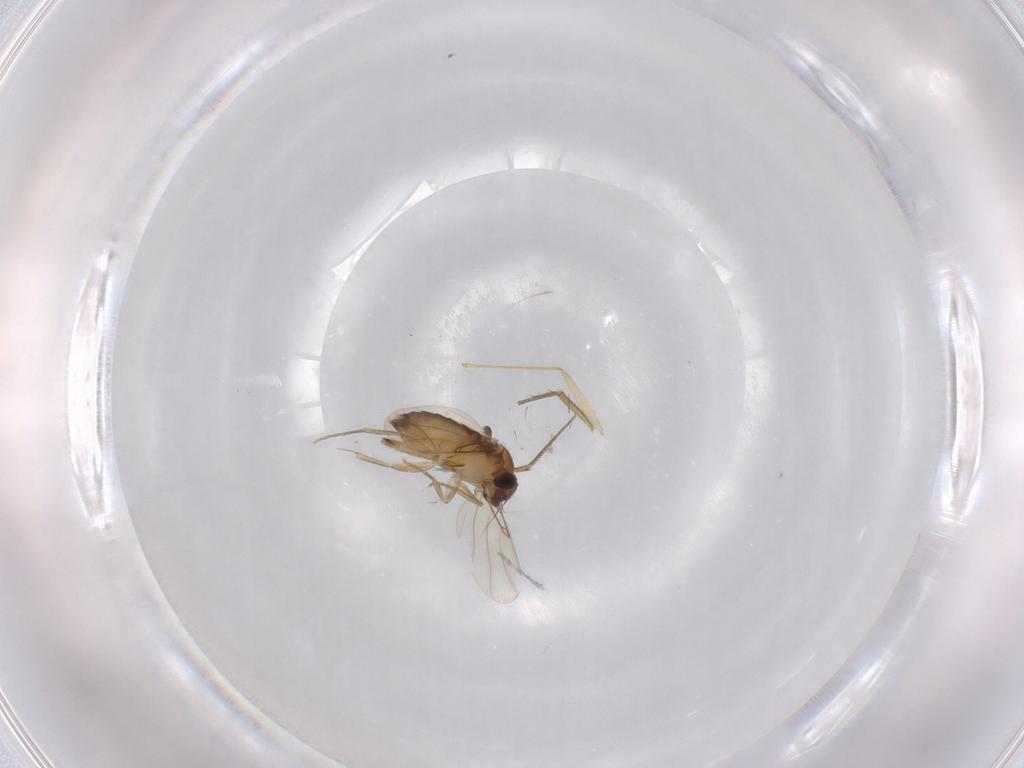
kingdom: Animalia
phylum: Arthropoda
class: Insecta
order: Diptera
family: Phoridae
